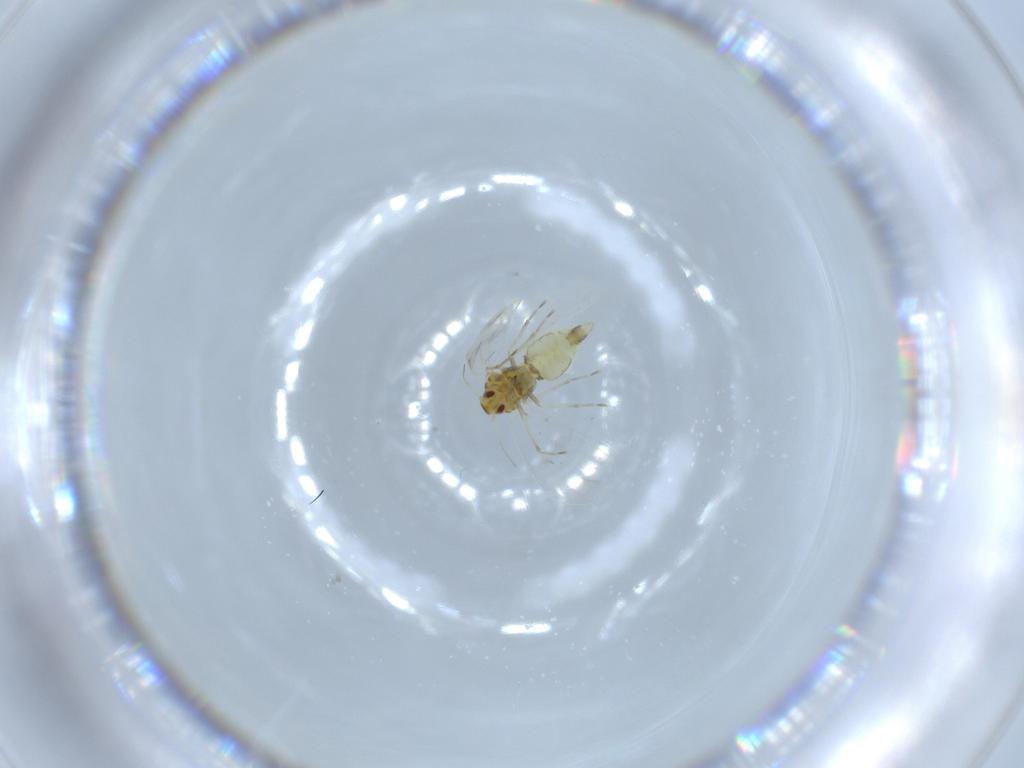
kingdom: Animalia
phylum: Arthropoda
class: Insecta
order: Hemiptera
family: Aleyrodidae
